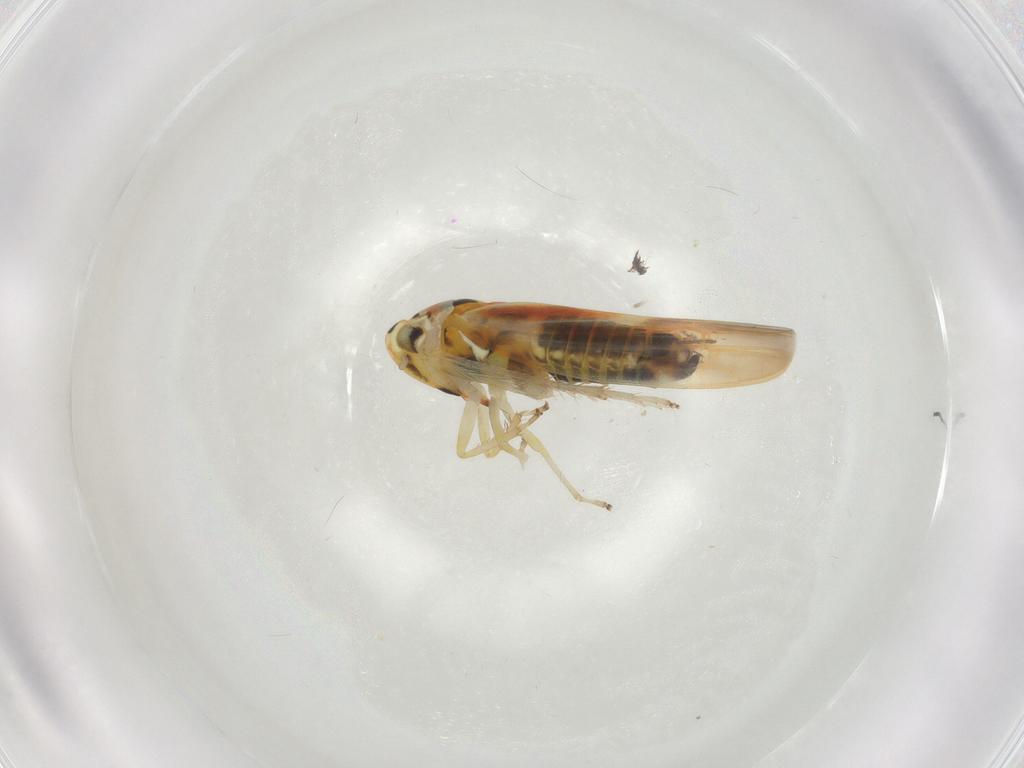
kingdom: Animalia
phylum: Arthropoda
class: Insecta
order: Hemiptera
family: Cicadellidae
